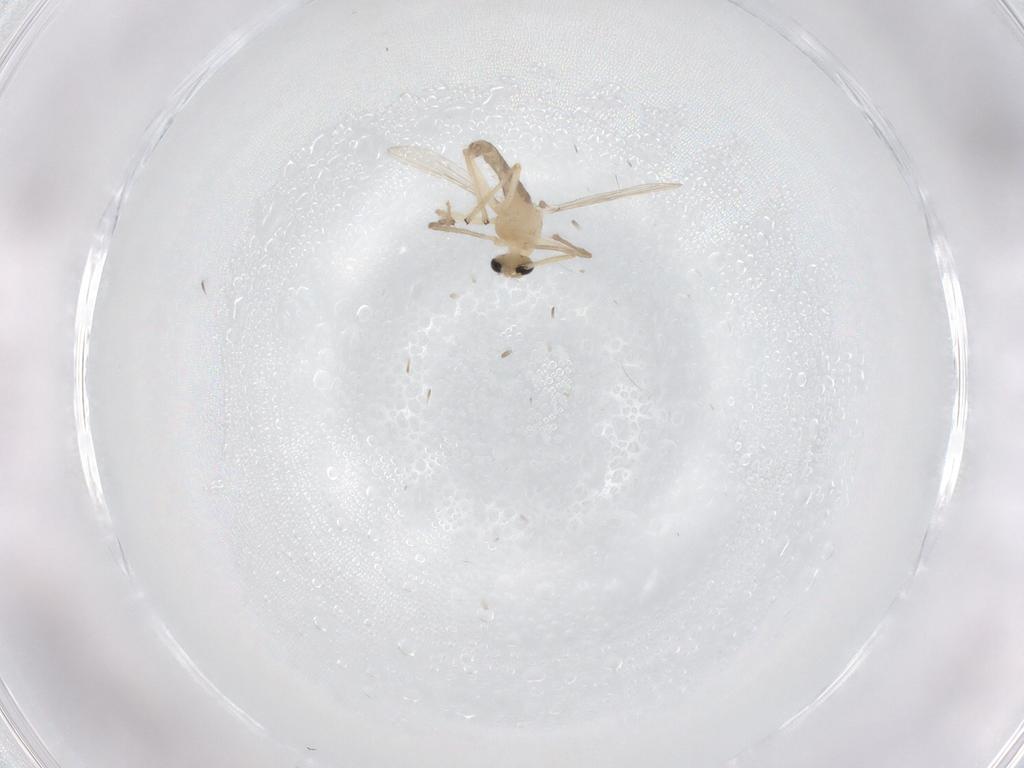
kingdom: Animalia
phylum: Arthropoda
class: Insecta
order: Diptera
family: Chironomidae
